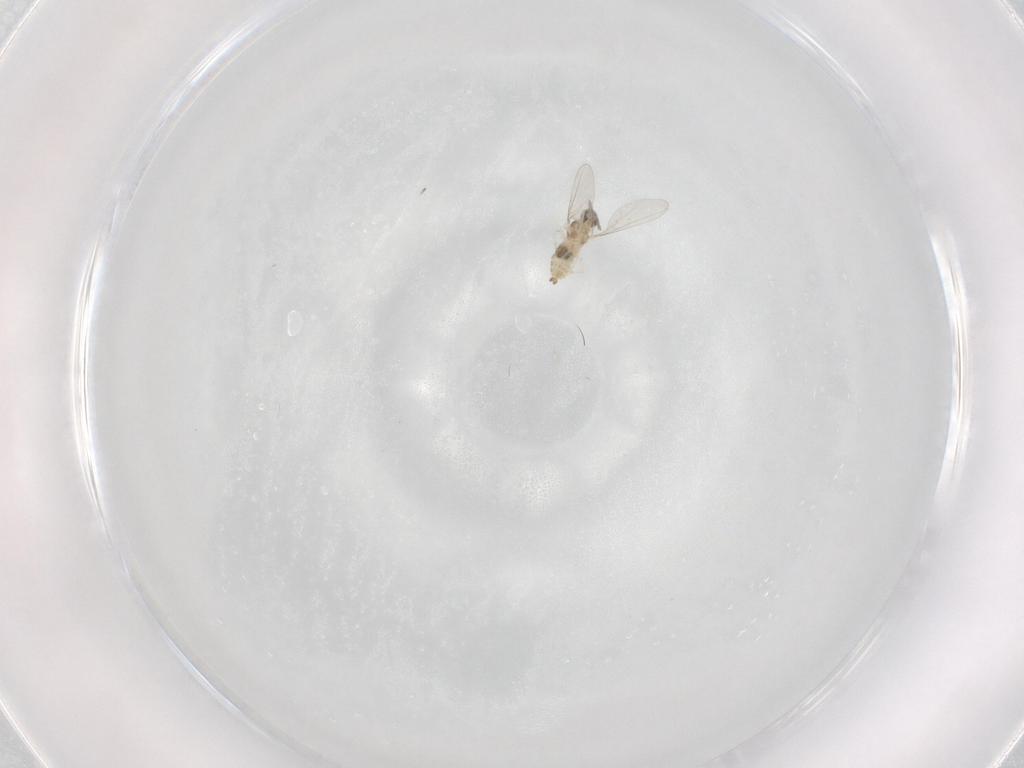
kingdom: Animalia
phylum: Arthropoda
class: Insecta
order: Diptera
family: Cecidomyiidae
